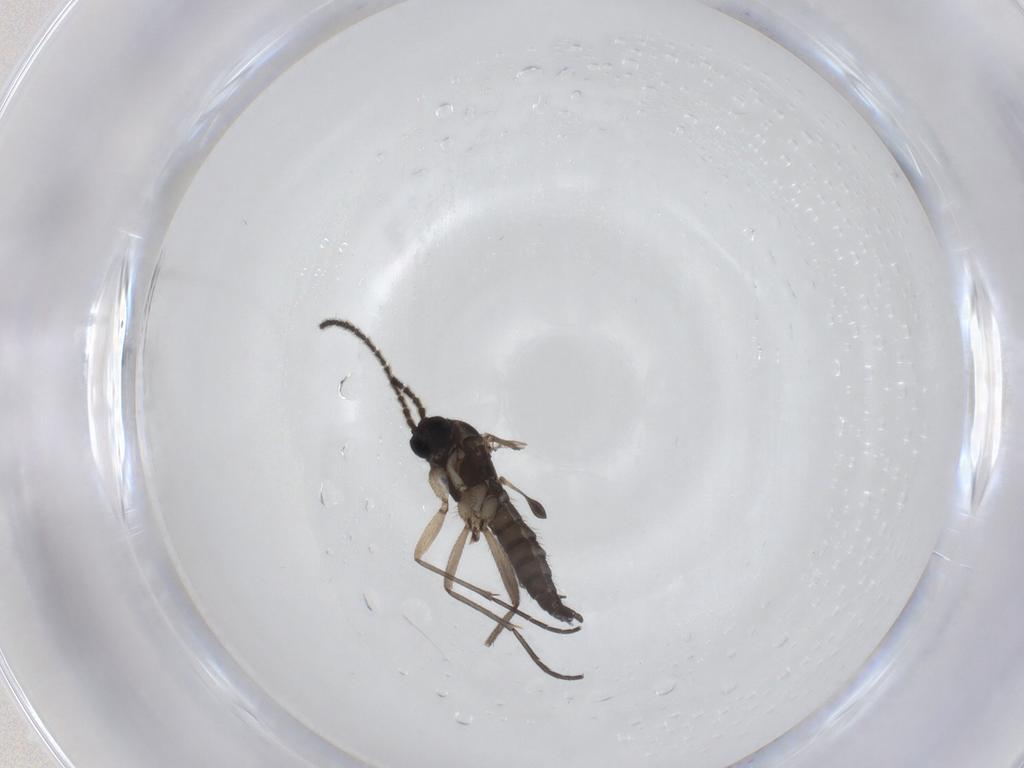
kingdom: Animalia
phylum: Arthropoda
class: Insecta
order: Diptera
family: Sciaridae
